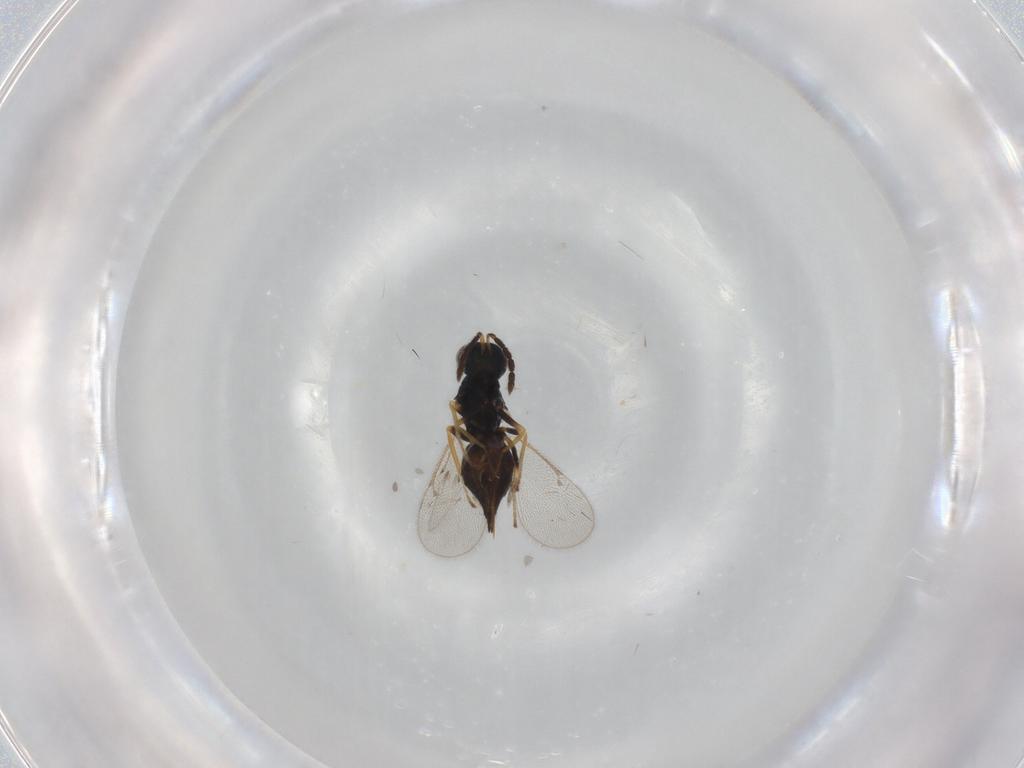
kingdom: Animalia
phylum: Arthropoda
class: Insecta
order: Hymenoptera
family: Eulophidae
